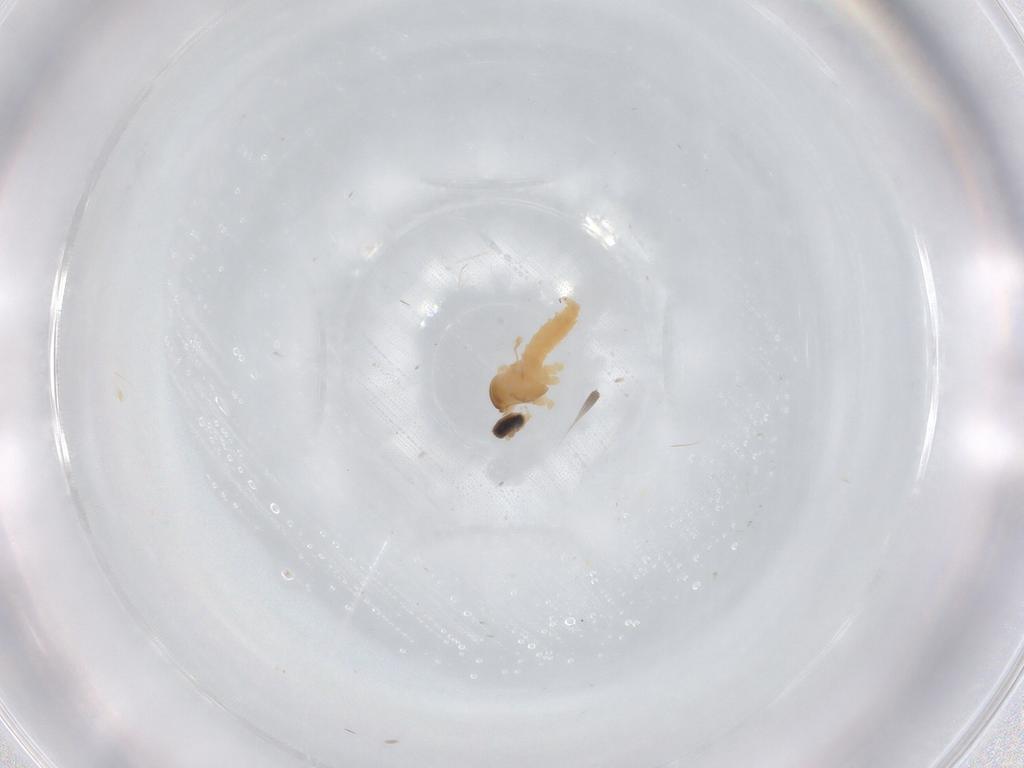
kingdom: Animalia
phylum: Arthropoda
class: Insecta
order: Diptera
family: Cecidomyiidae
